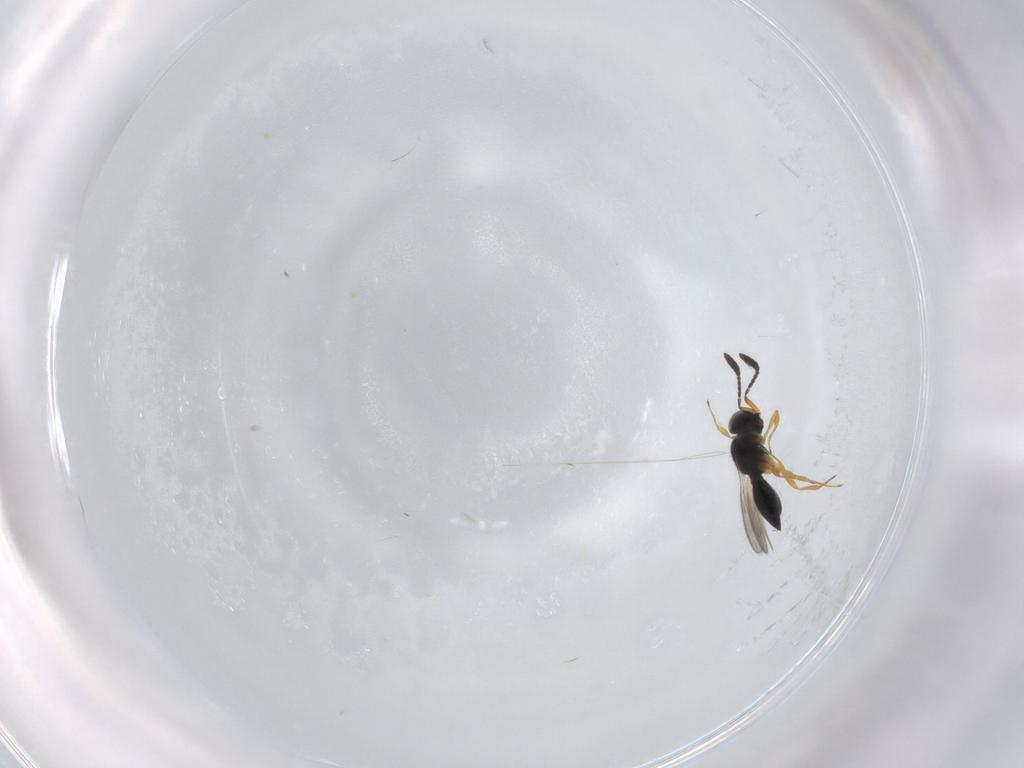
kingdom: Animalia
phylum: Arthropoda
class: Insecta
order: Hymenoptera
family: Scelionidae
